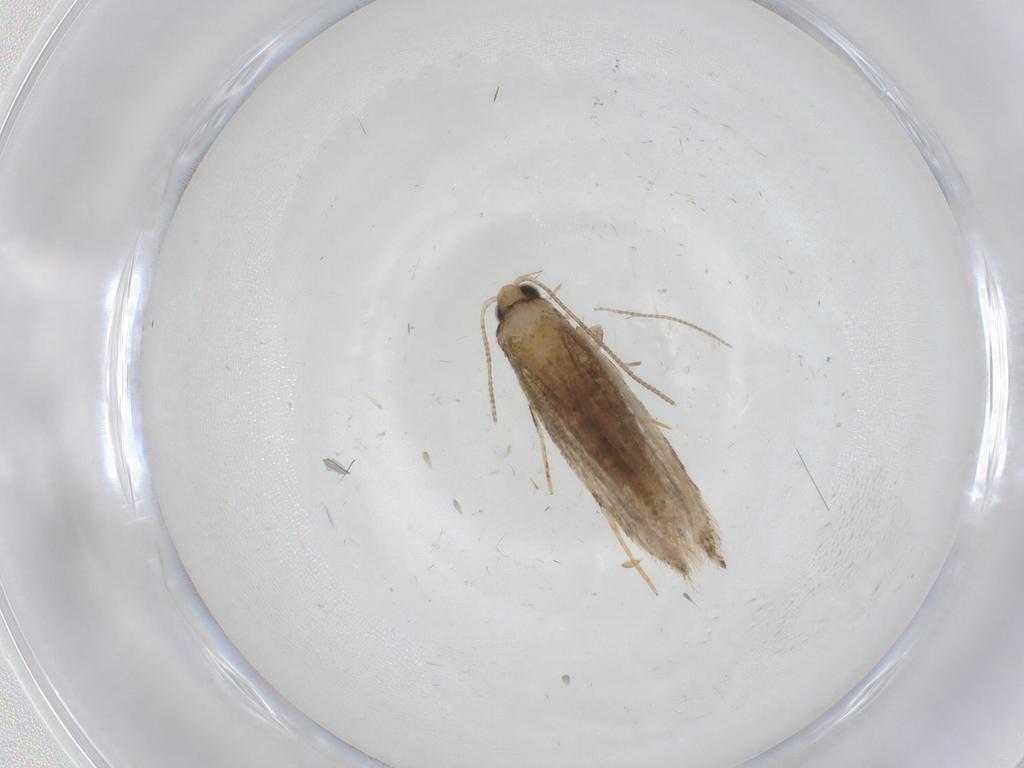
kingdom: Animalia
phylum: Arthropoda
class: Insecta
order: Lepidoptera
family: Tineidae
